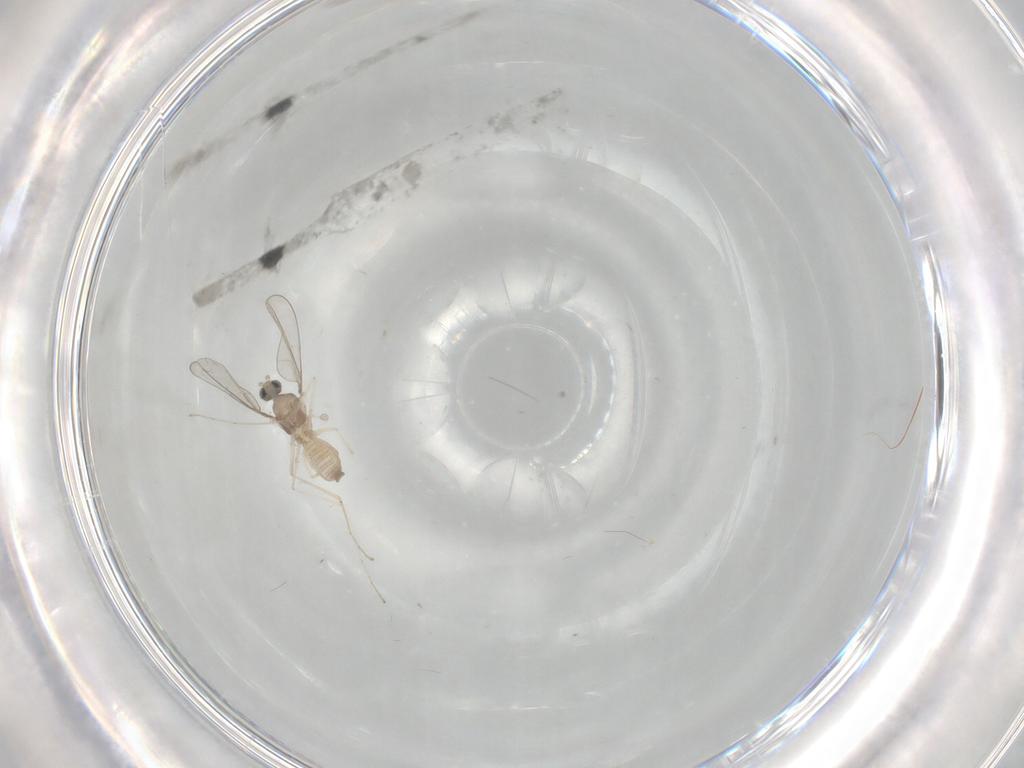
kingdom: Animalia
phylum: Arthropoda
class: Insecta
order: Diptera
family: Cecidomyiidae
